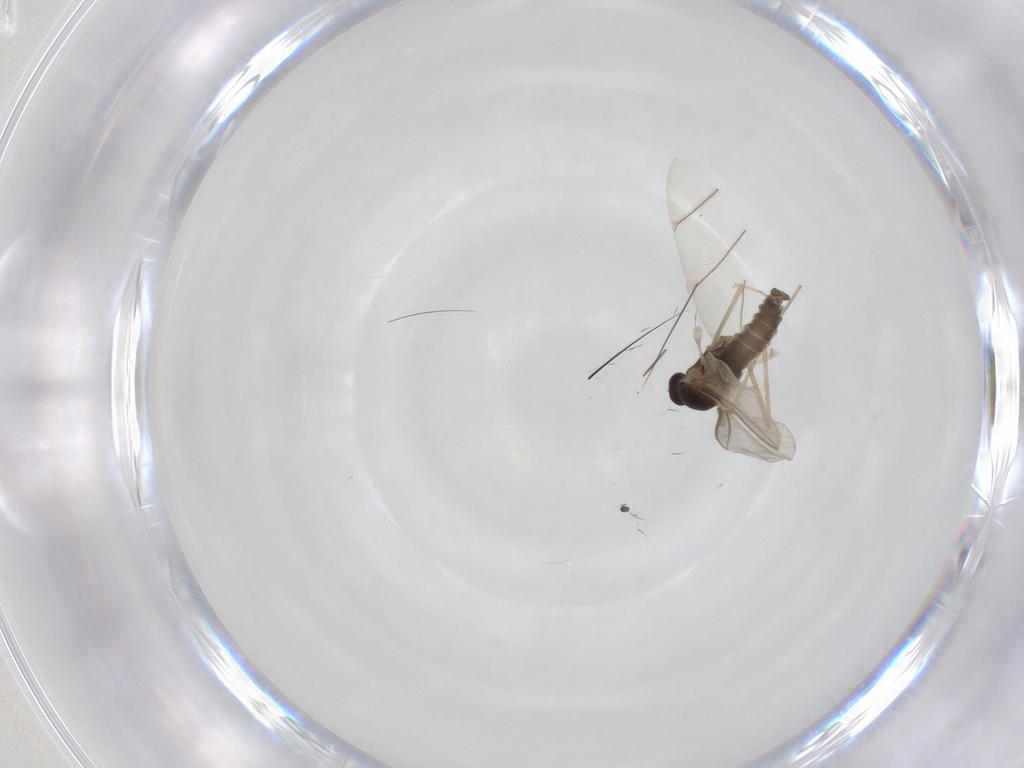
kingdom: Animalia
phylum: Arthropoda
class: Insecta
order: Diptera
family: Cecidomyiidae
